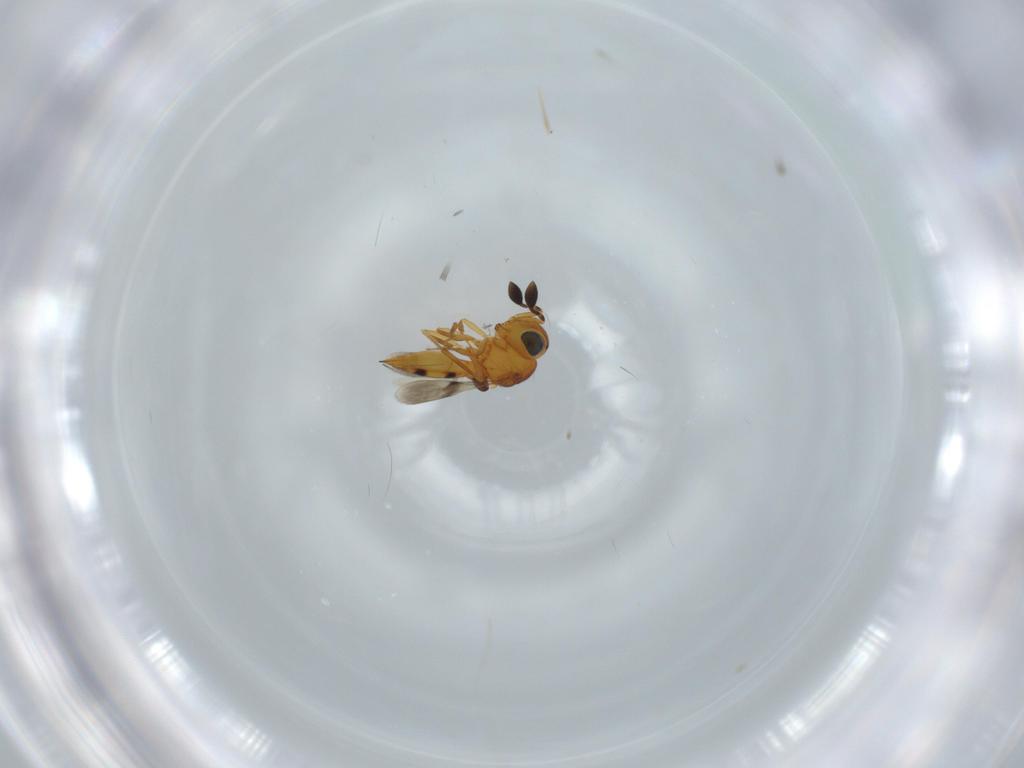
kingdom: Animalia
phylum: Arthropoda
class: Insecta
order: Hymenoptera
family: Scelionidae
